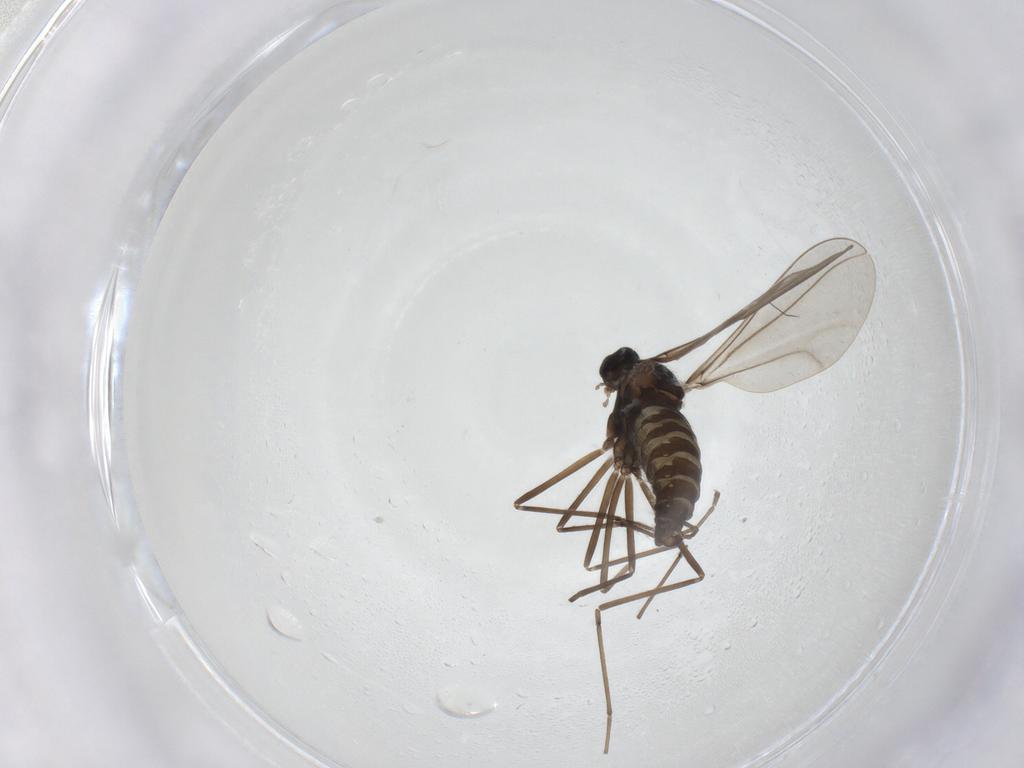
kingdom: Animalia
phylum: Arthropoda
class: Insecta
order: Diptera
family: Cecidomyiidae
